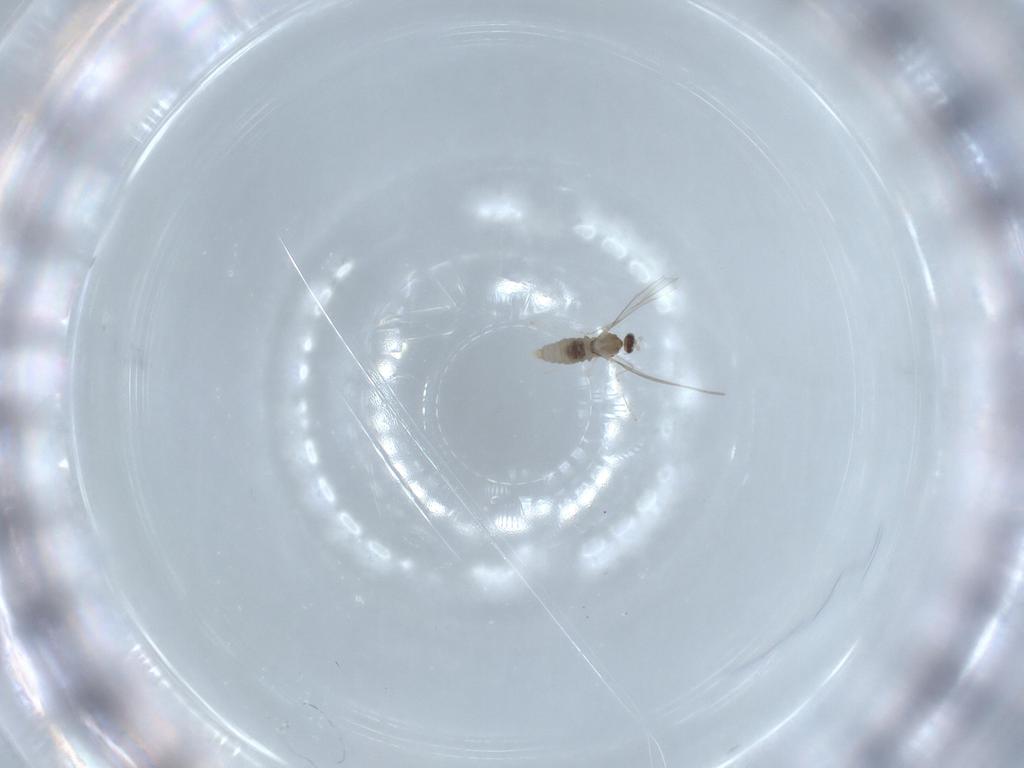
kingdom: Animalia
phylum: Arthropoda
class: Insecta
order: Diptera
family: Cecidomyiidae
